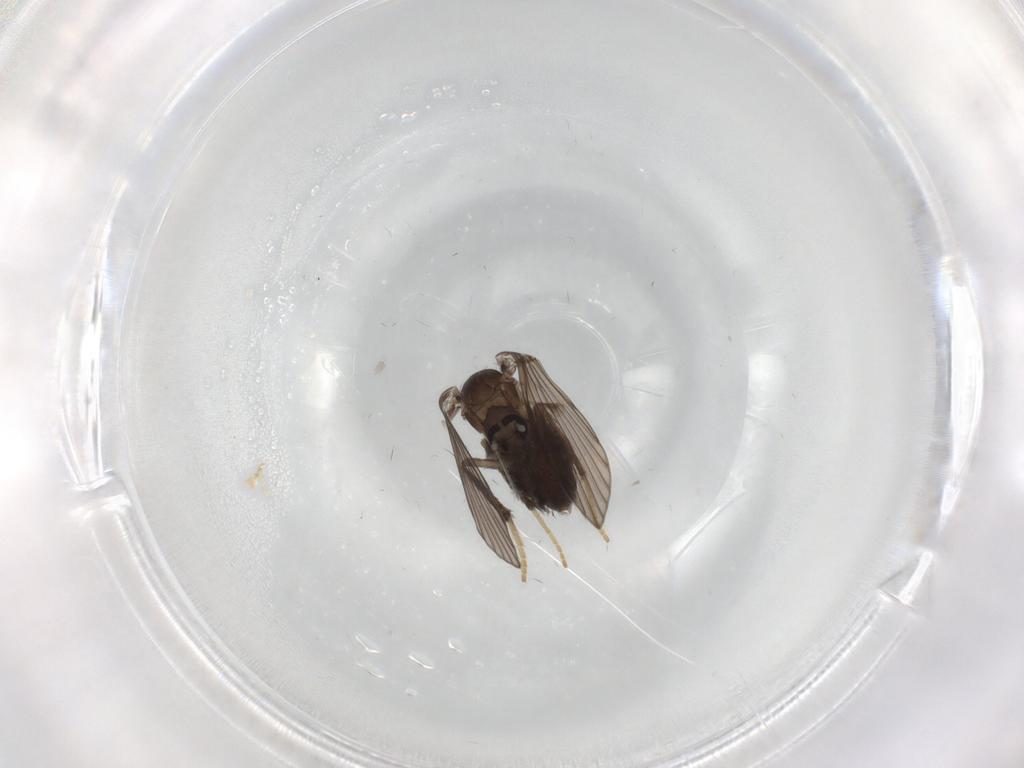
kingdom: Animalia
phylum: Arthropoda
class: Insecta
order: Diptera
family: Psychodidae
